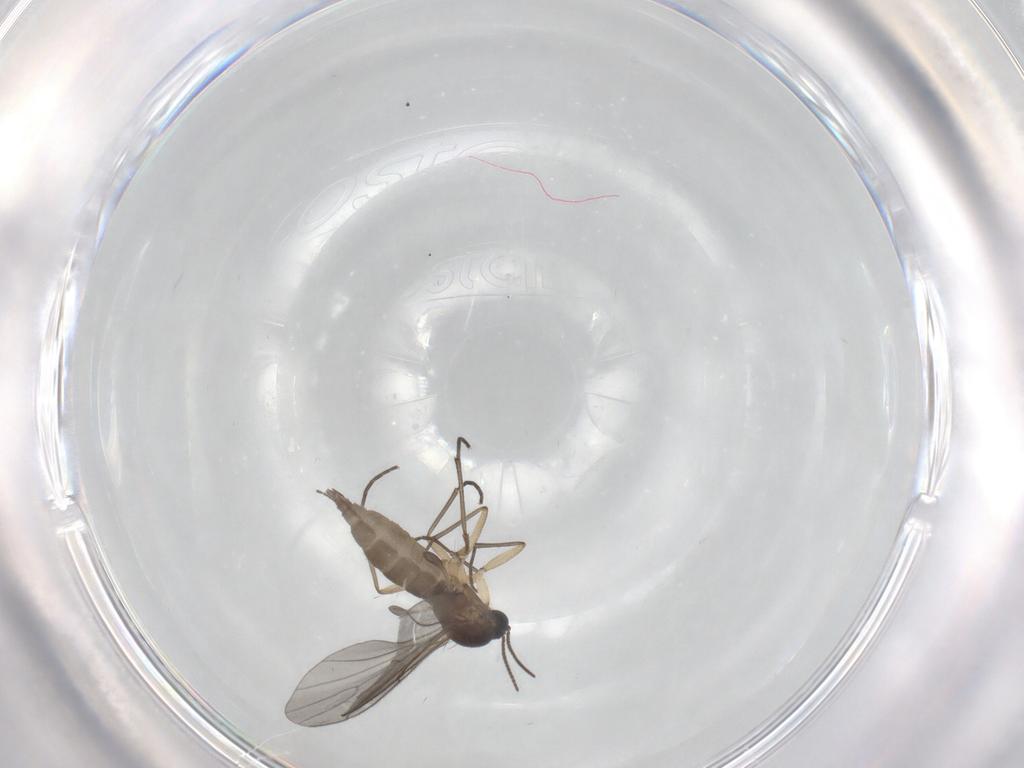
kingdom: Animalia
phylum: Arthropoda
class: Insecta
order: Diptera
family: Sciaridae
